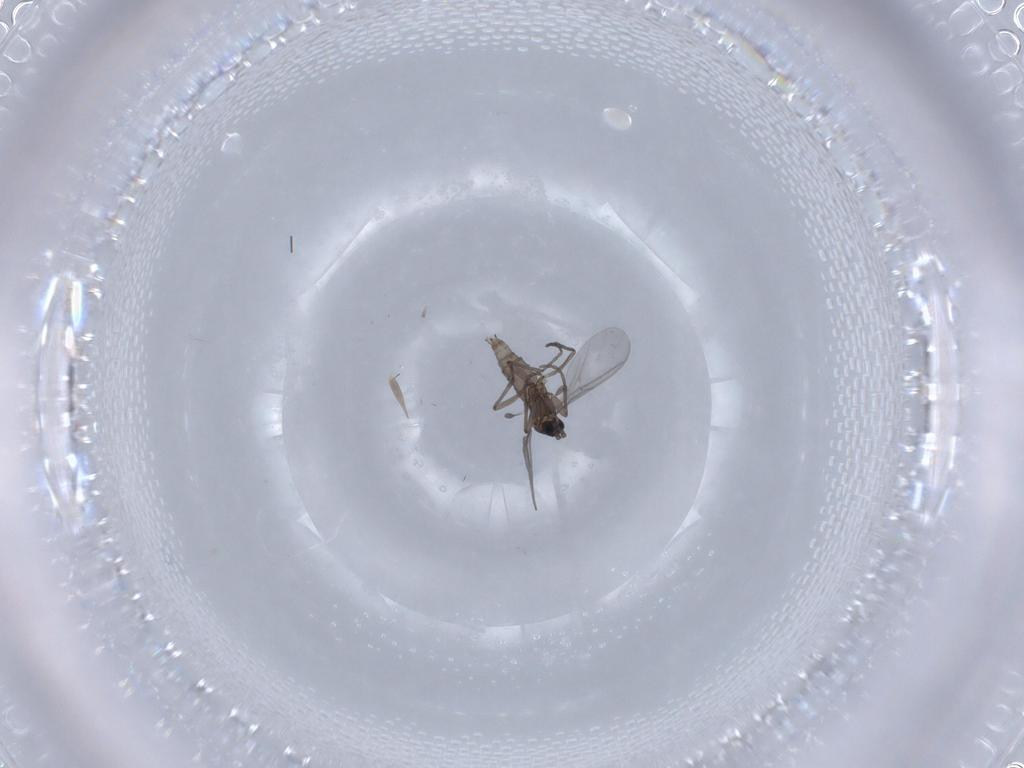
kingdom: Animalia
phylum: Arthropoda
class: Insecta
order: Diptera
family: Sciaridae
